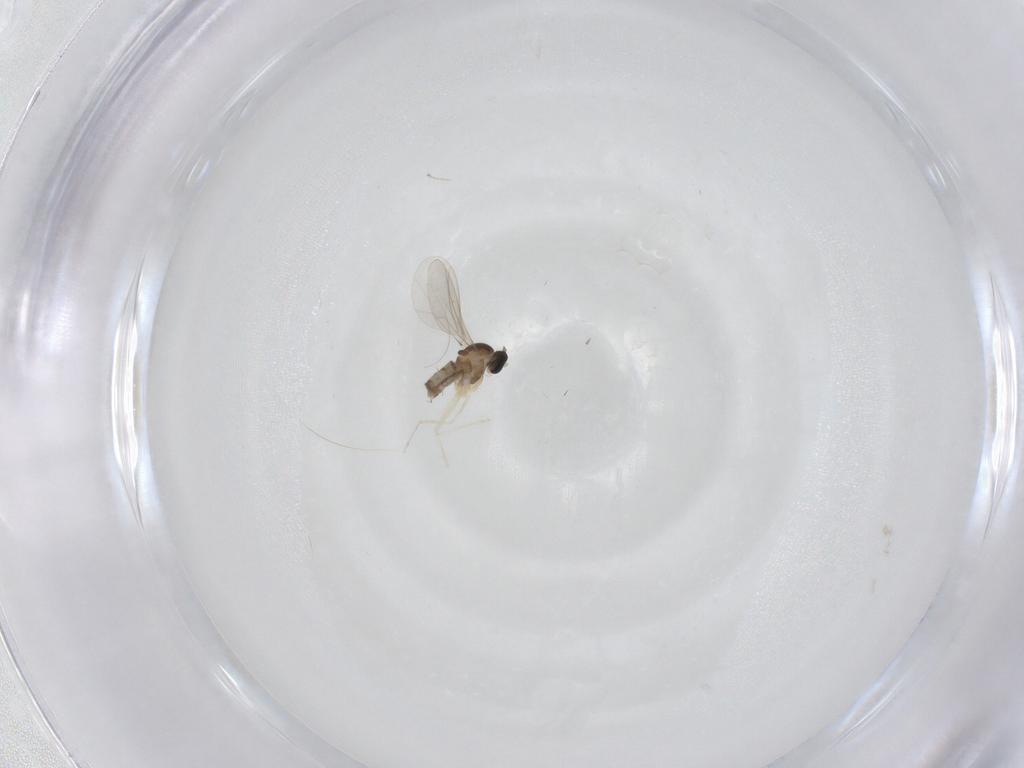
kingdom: Animalia
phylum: Arthropoda
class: Insecta
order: Diptera
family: Cecidomyiidae
